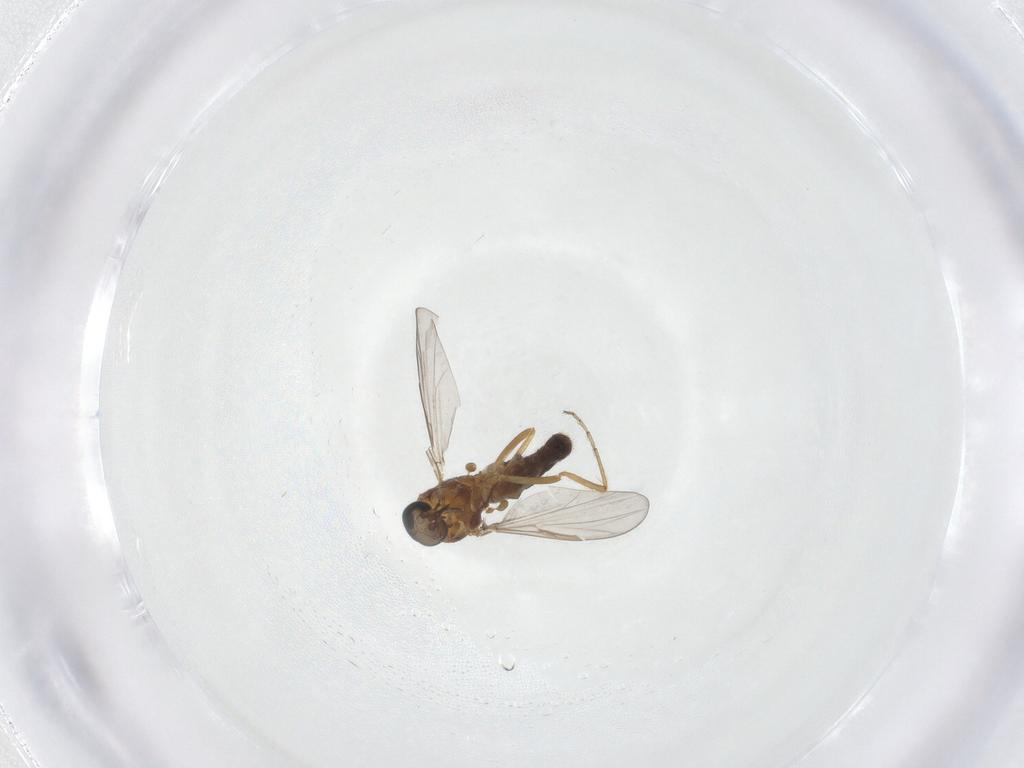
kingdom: Animalia
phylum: Arthropoda
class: Insecta
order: Diptera
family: Ceratopogonidae
